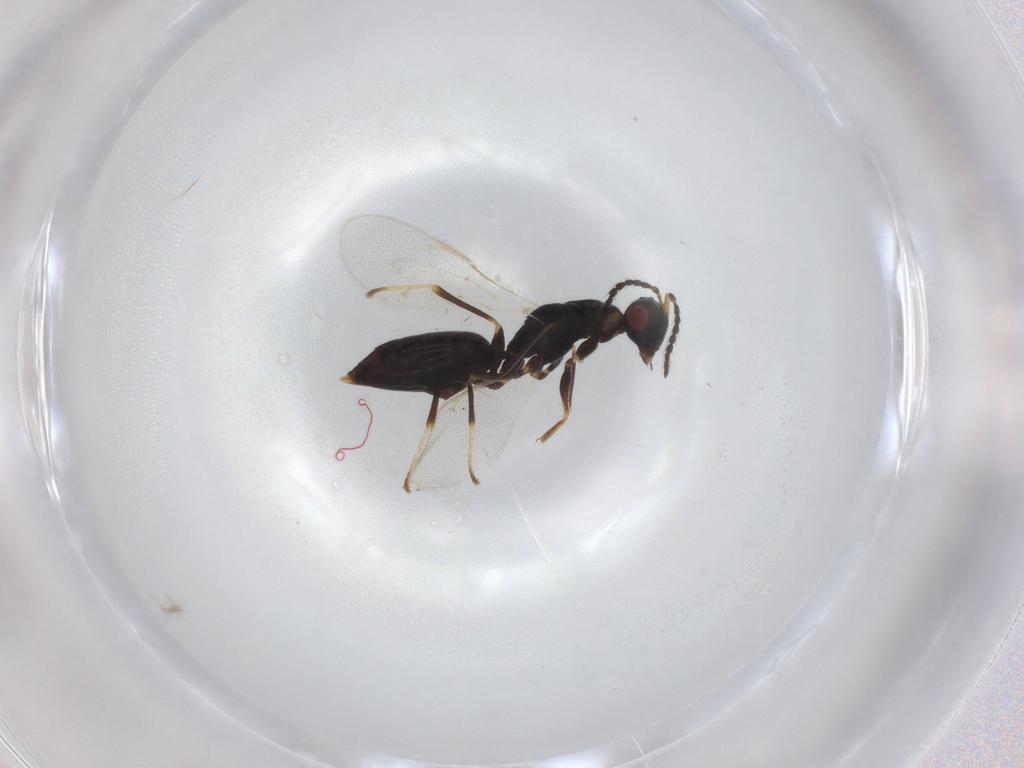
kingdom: Animalia
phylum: Arthropoda
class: Insecta
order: Hymenoptera
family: Eurytomidae
